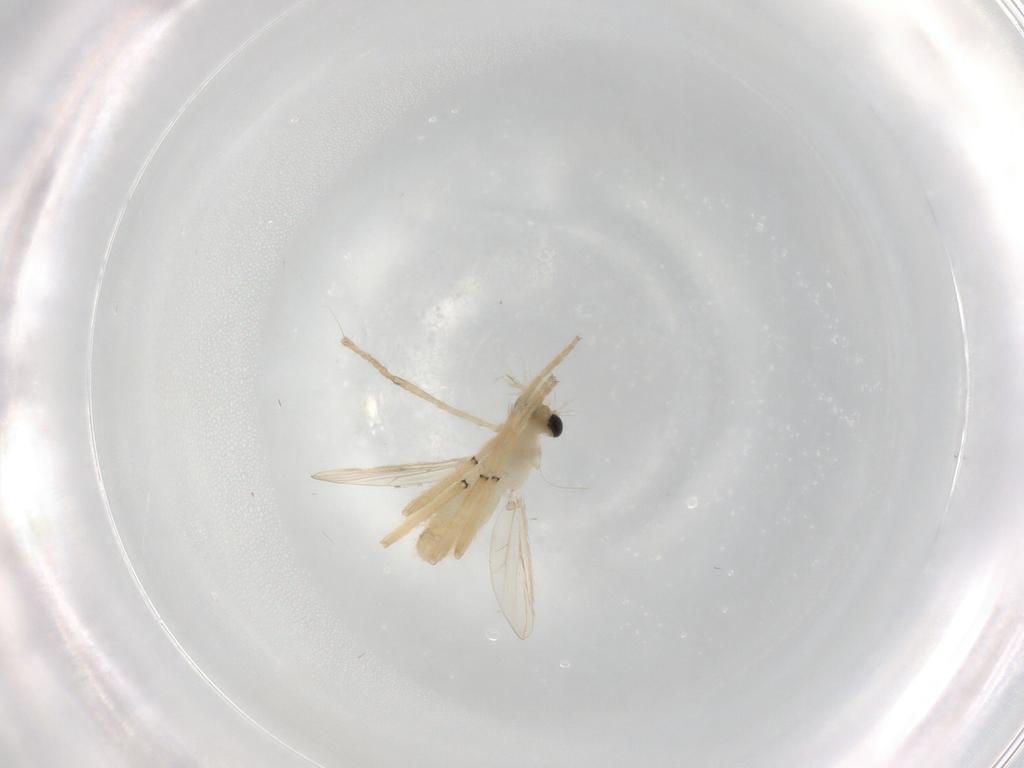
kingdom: Animalia
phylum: Arthropoda
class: Insecta
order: Diptera
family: Chironomidae
